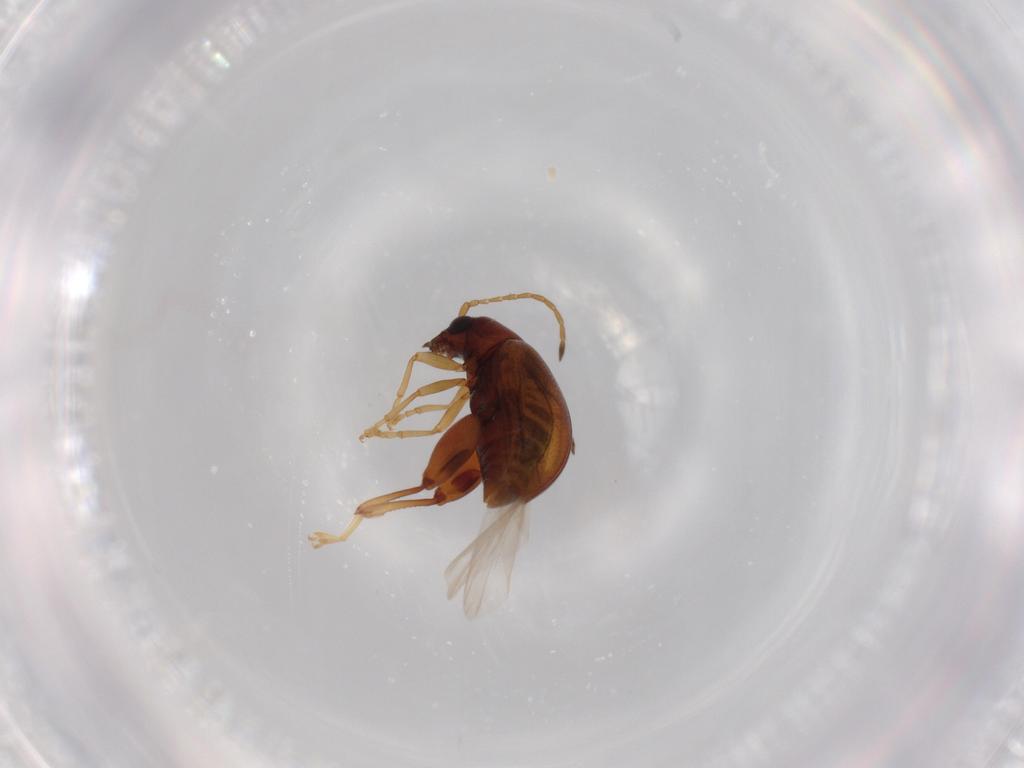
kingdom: Animalia
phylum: Arthropoda
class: Insecta
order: Coleoptera
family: Chrysomelidae
